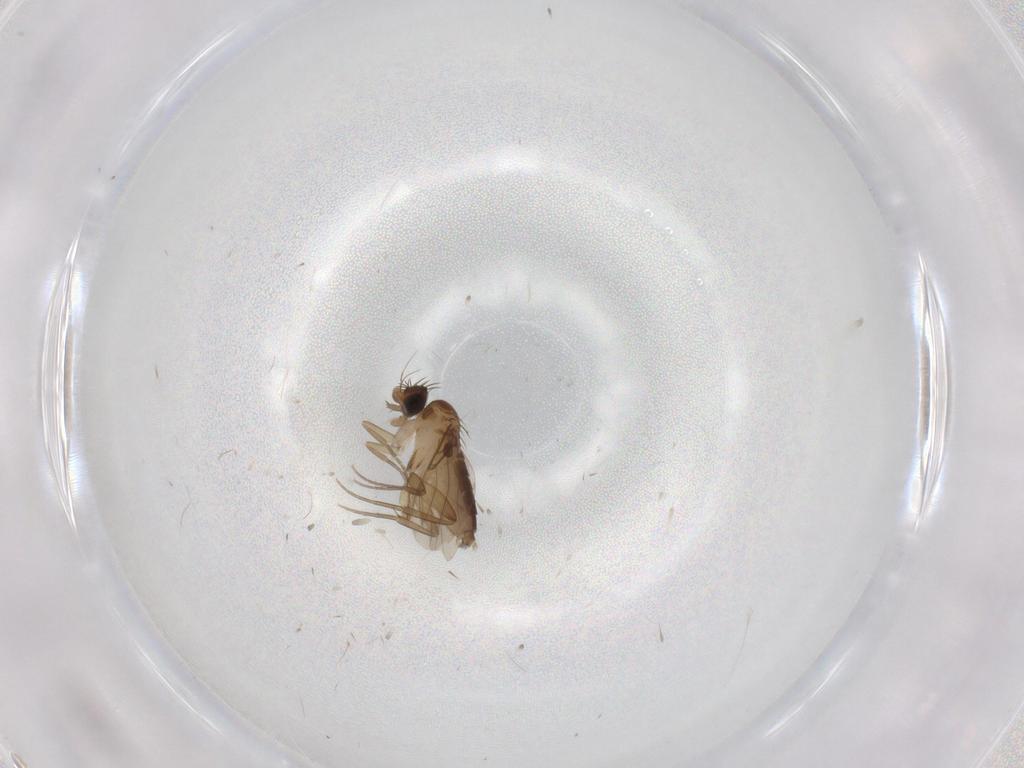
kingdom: Animalia
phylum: Arthropoda
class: Insecta
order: Diptera
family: Phoridae
